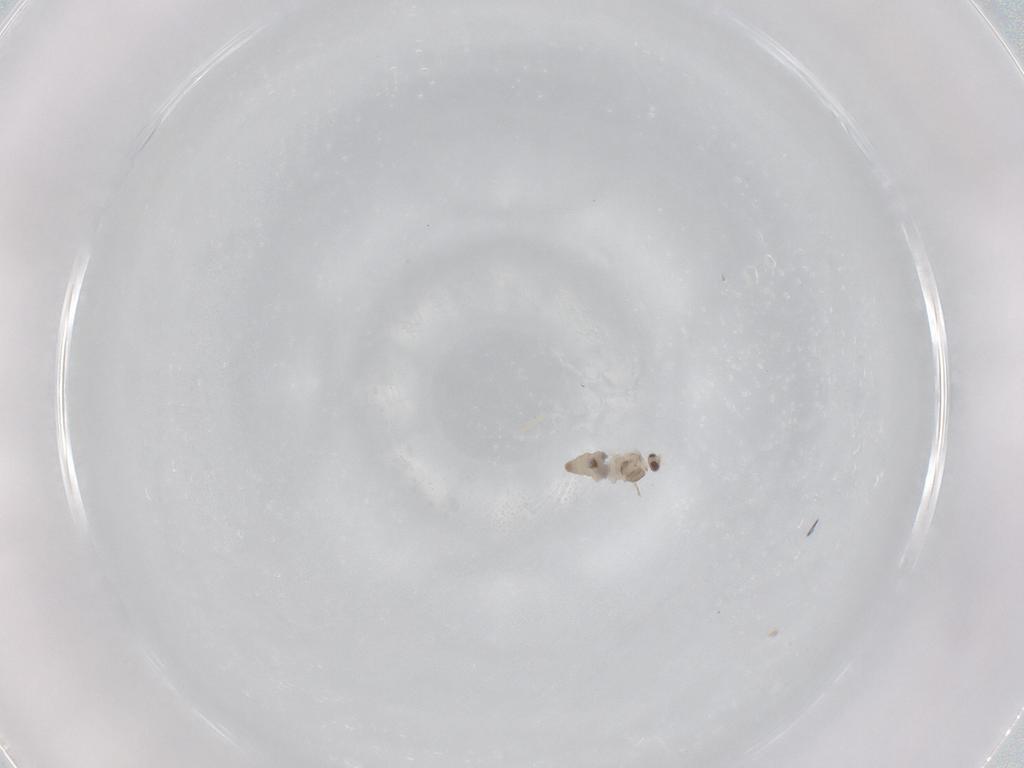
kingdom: Animalia
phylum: Arthropoda
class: Insecta
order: Diptera
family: Cecidomyiidae
